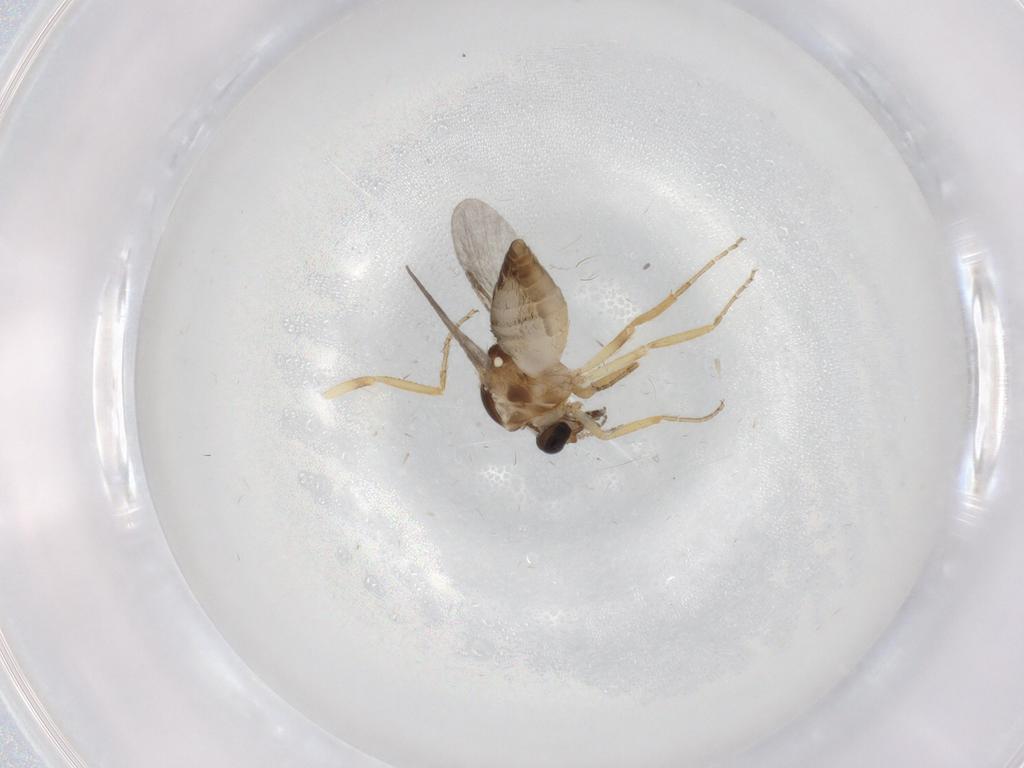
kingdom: Animalia
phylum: Arthropoda
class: Insecta
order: Diptera
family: Ceratopogonidae
